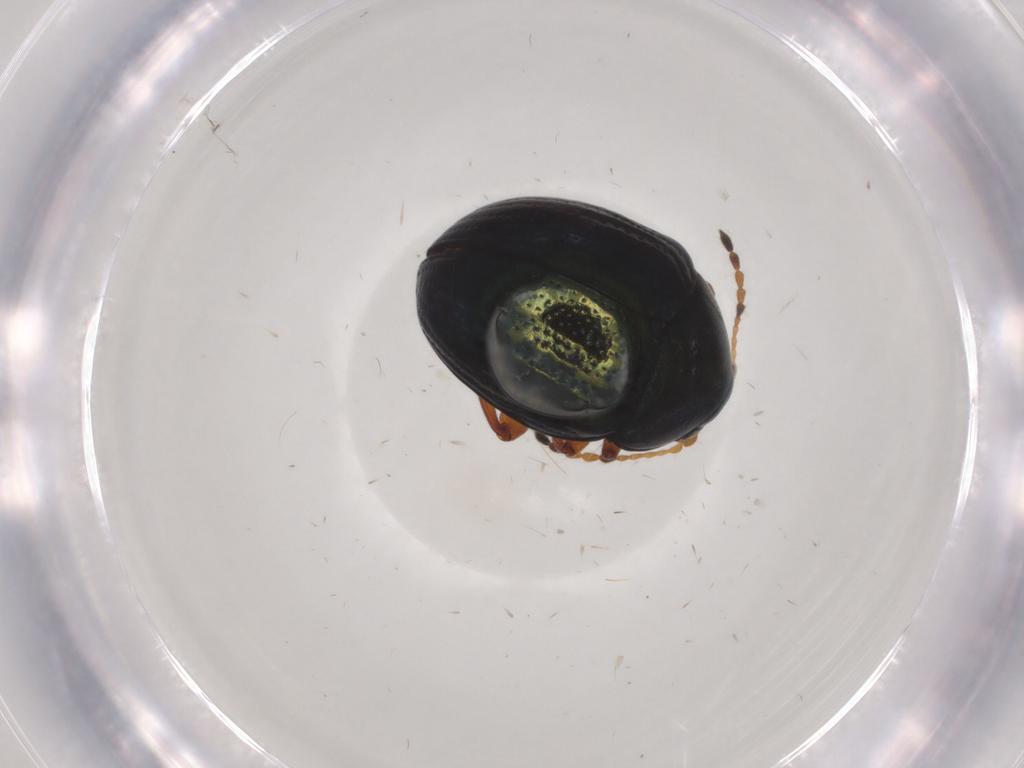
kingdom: Animalia
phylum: Arthropoda
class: Insecta
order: Coleoptera
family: Chrysomelidae
